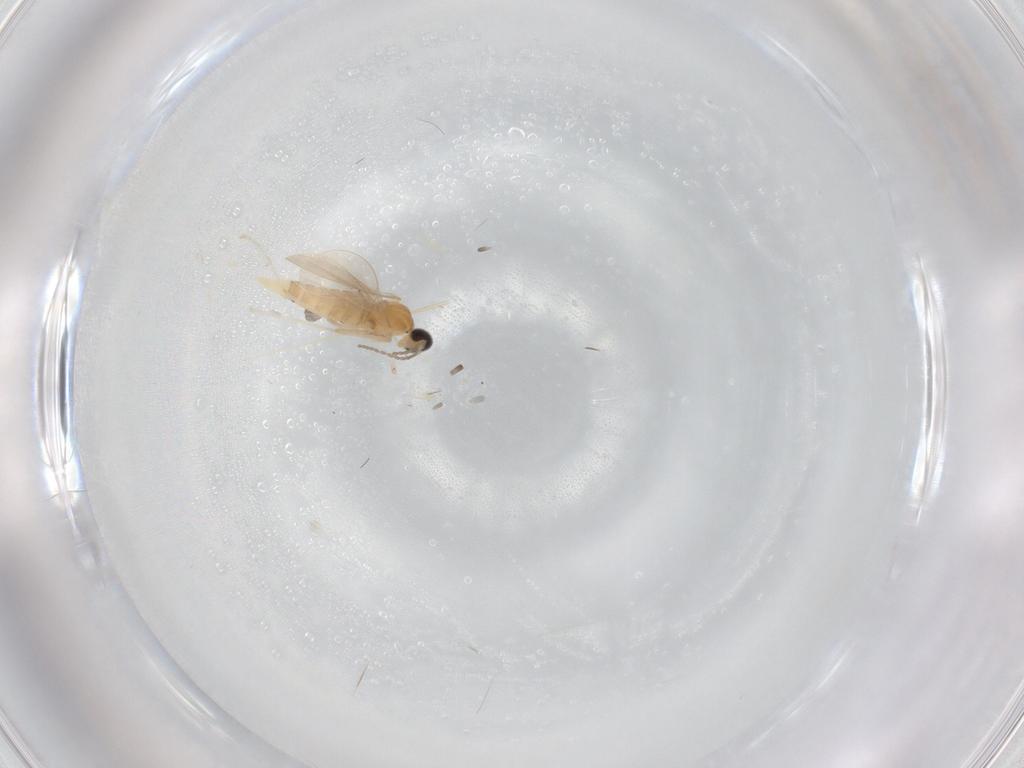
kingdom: Animalia
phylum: Arthropoda
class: Insecta
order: Diptera
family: Cecidomyiidae
